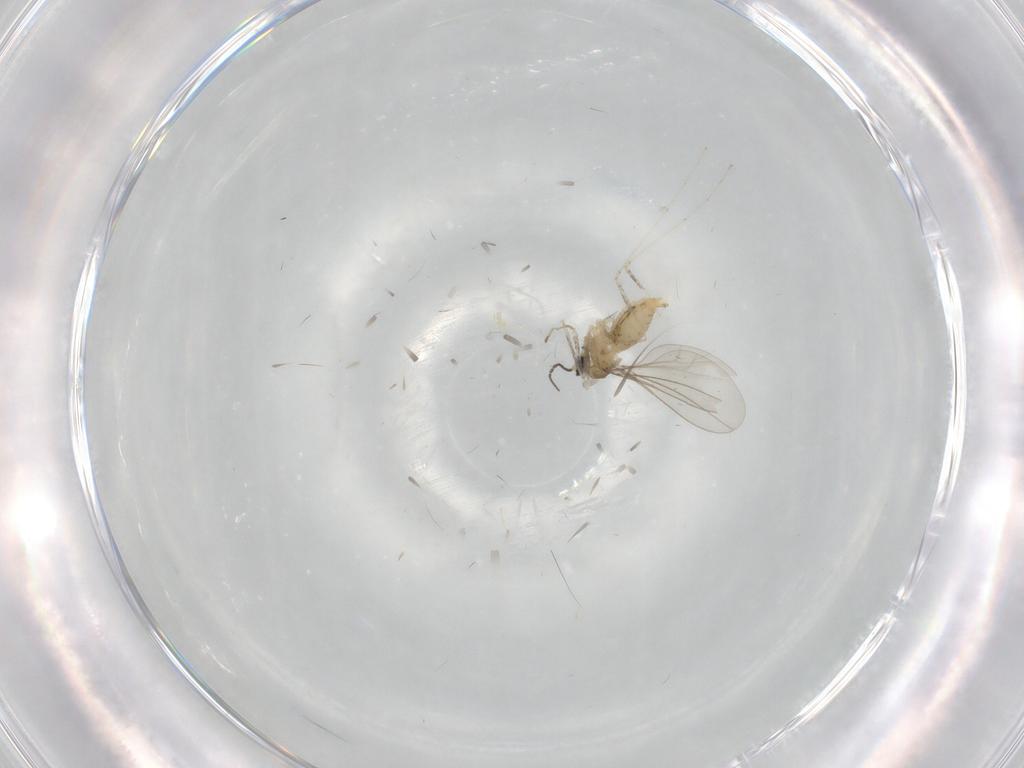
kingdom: Animalia
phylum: Arthropoda
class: Insecta
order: Diptera
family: Cecidomyiidae
